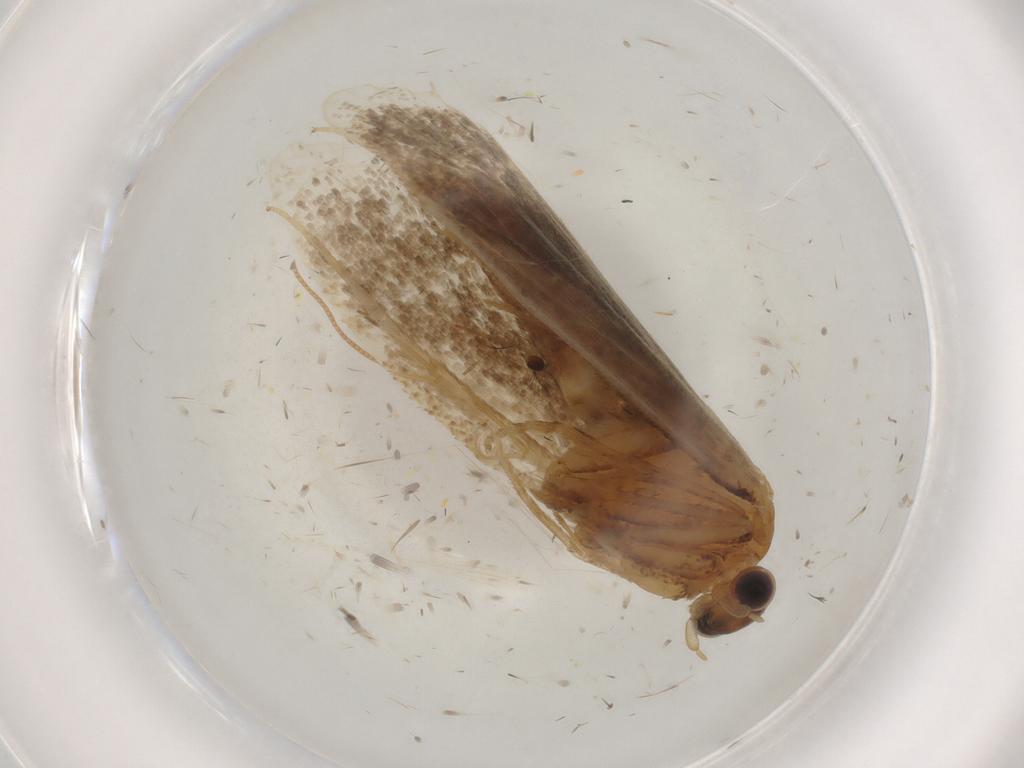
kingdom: Animalia
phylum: Arthropoda
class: Insecta
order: Lepidoptera
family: Nepticulidae
